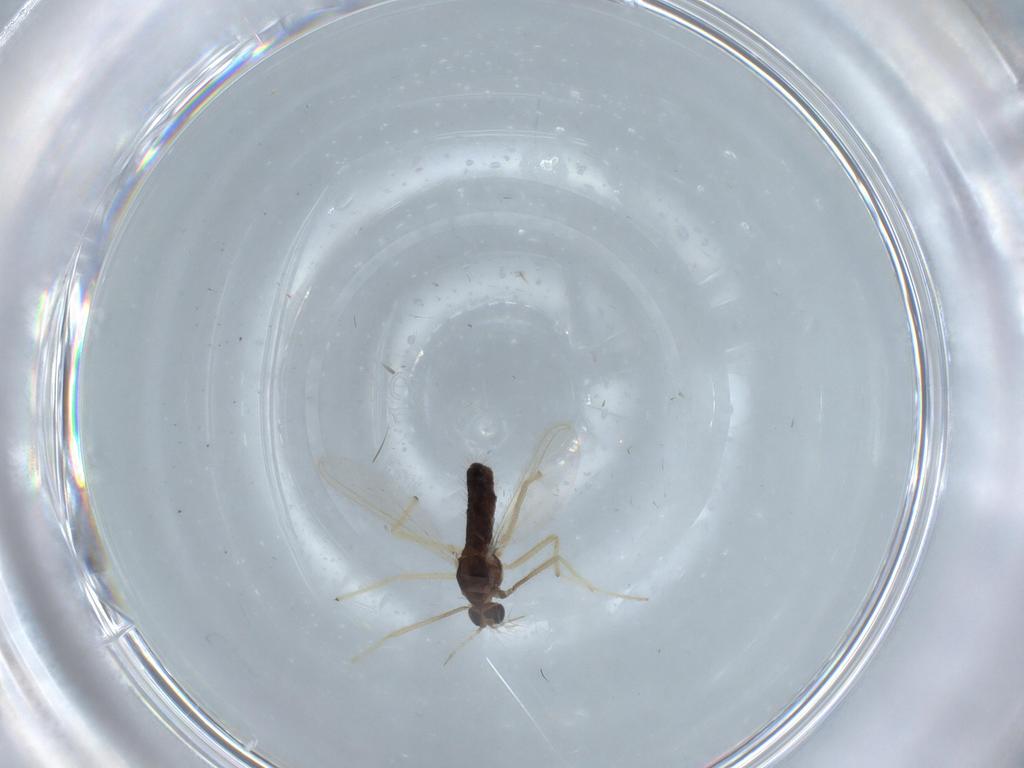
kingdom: Animalia
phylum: Arthropoda
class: Insecta
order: Diptera
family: Chironomidae
